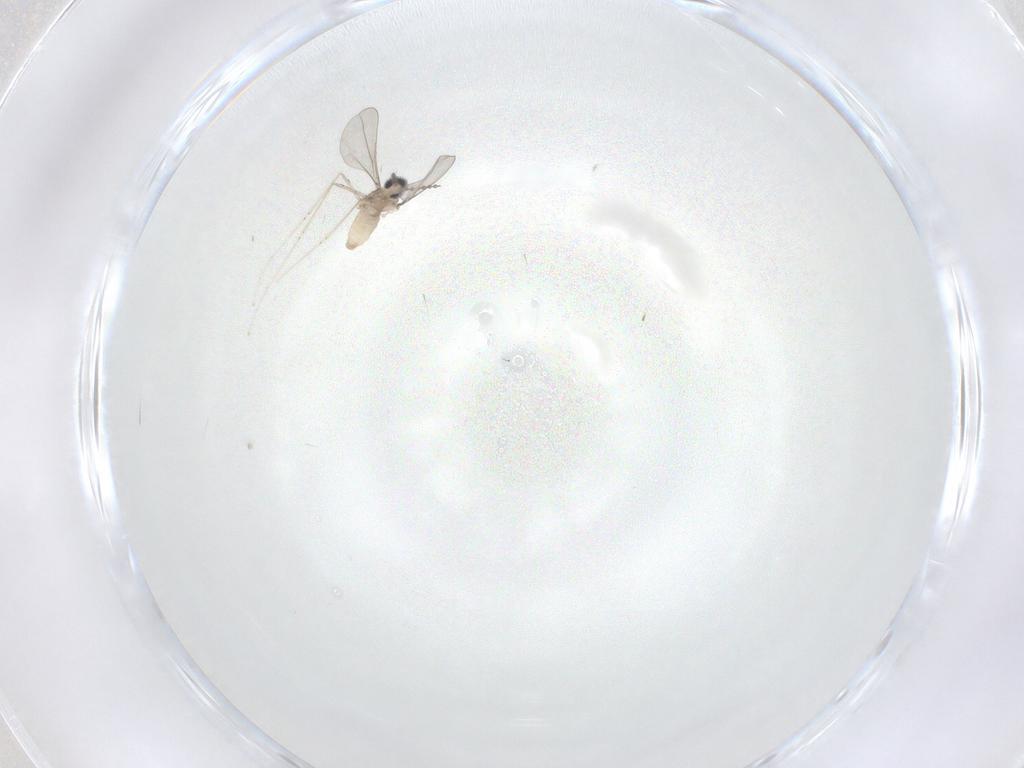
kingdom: Animalia
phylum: Arthropoda
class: Insecta
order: Diptera
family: Cecidomyiidae
